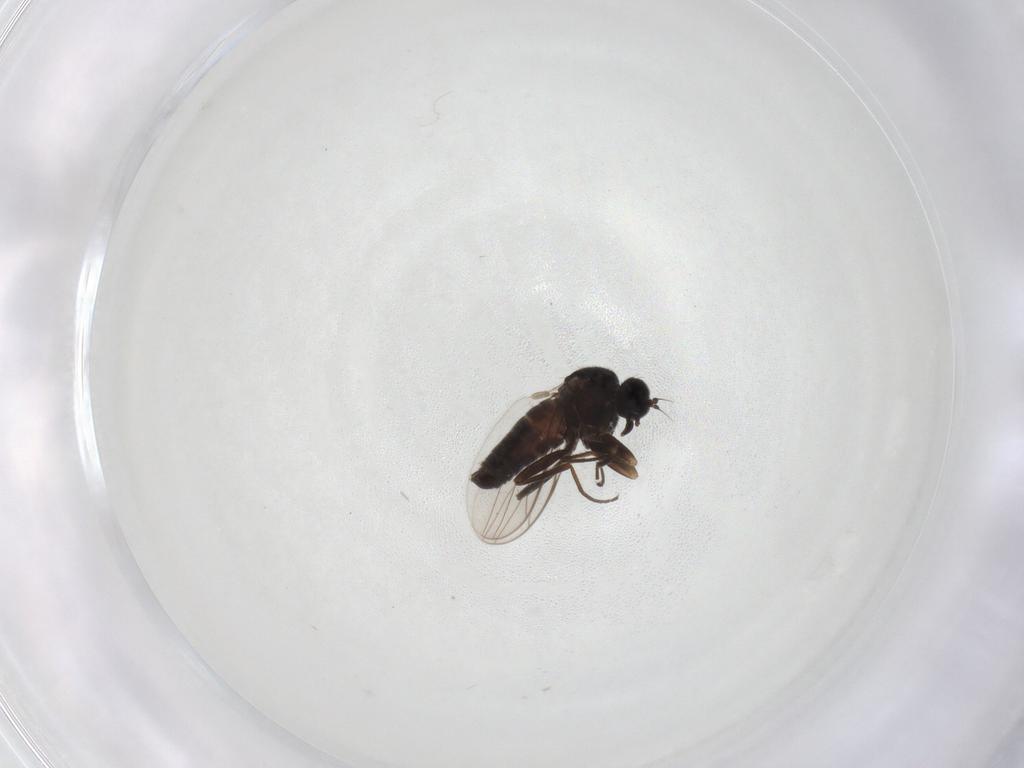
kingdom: Animalia
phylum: Arthropoda
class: Insecta
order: Diptera
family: Hybotidae
